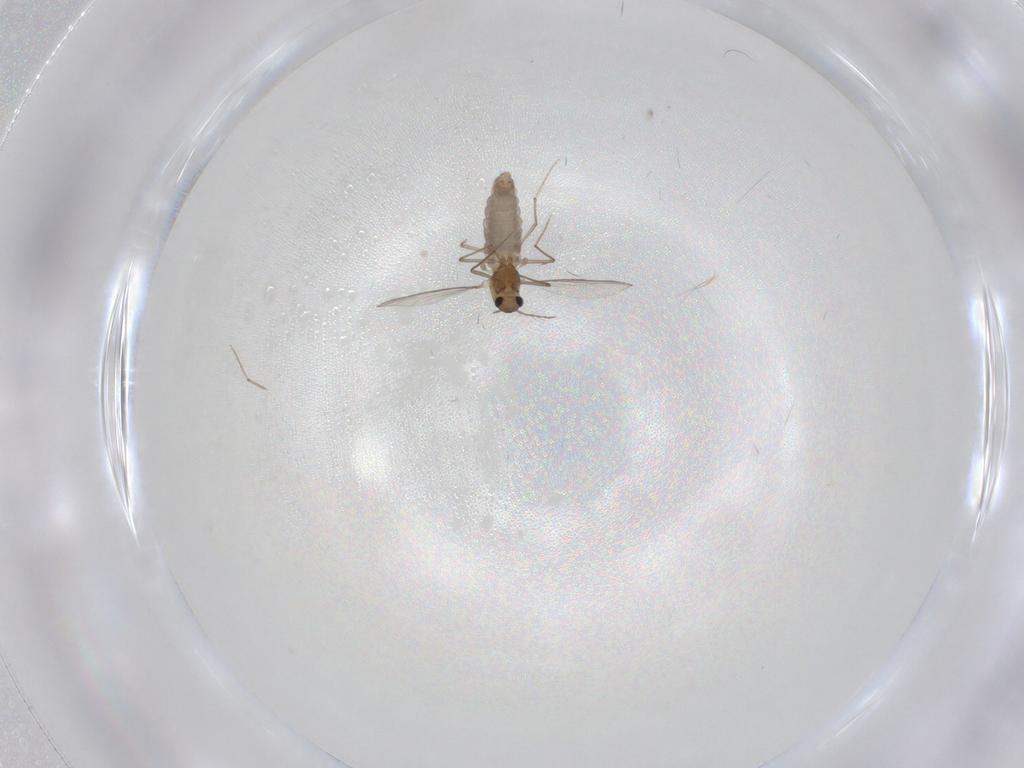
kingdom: Animalia
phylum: Arthropoda
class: Insecta
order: Diptera
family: Chironomidae
